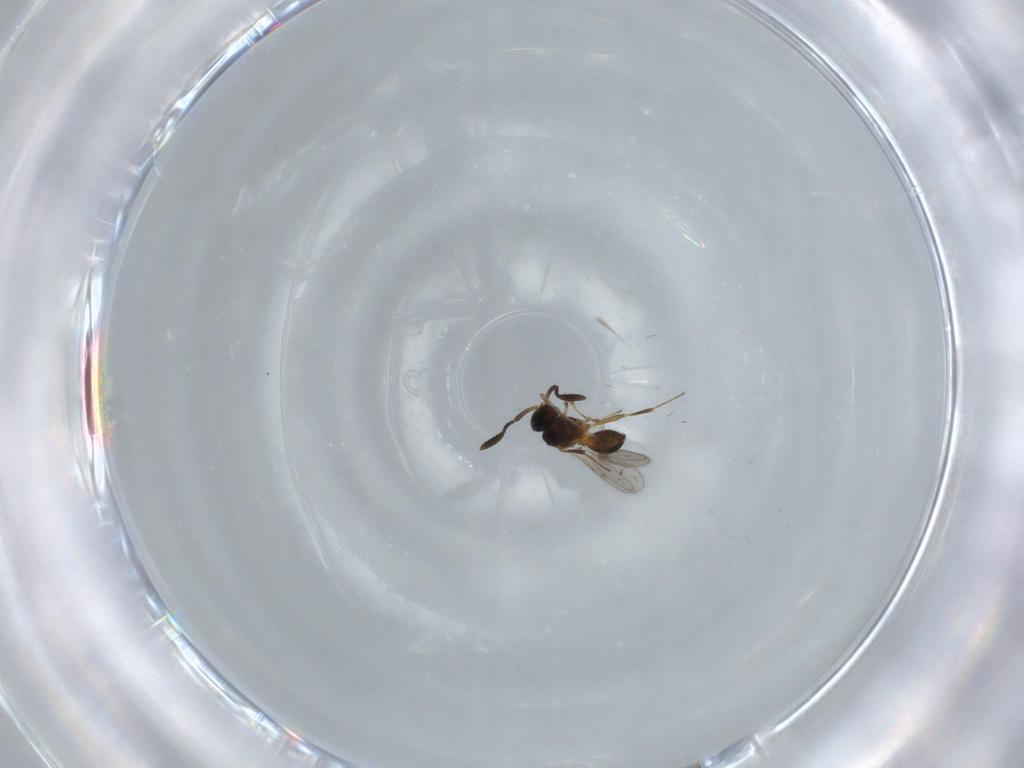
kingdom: Animalia
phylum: Arthropoda
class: Insecta
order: Hymenoptera
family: Scelionidae
